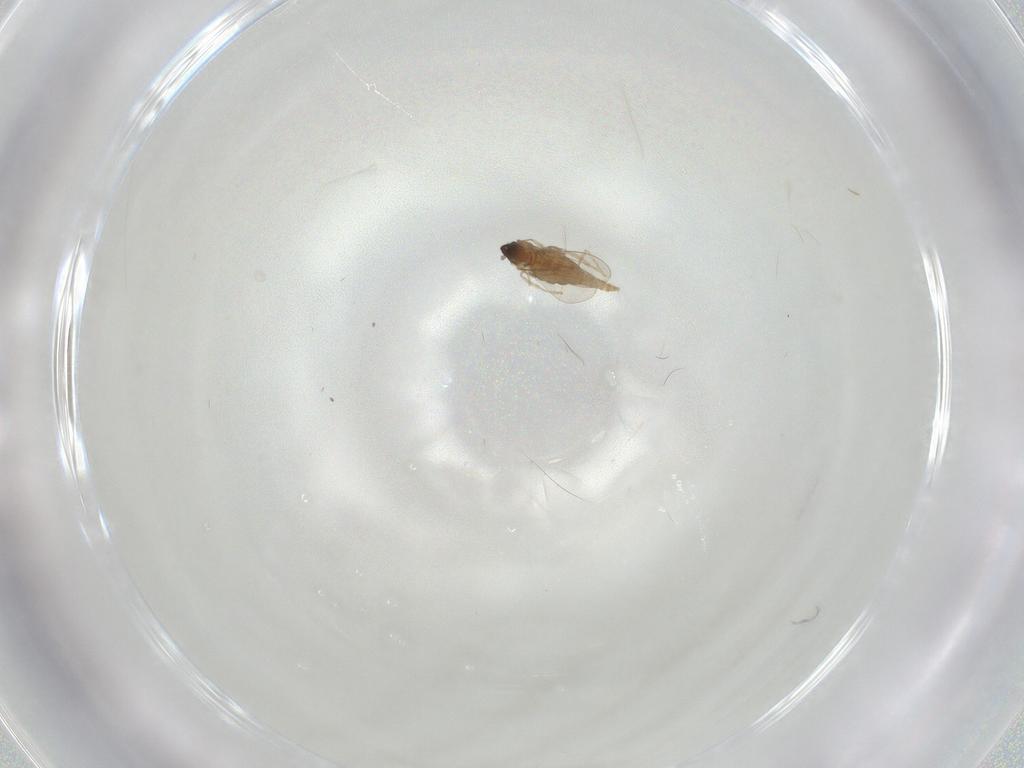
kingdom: Animalia
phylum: Arthropoda
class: Insecta
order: Diptera
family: Cecidomyiidae
